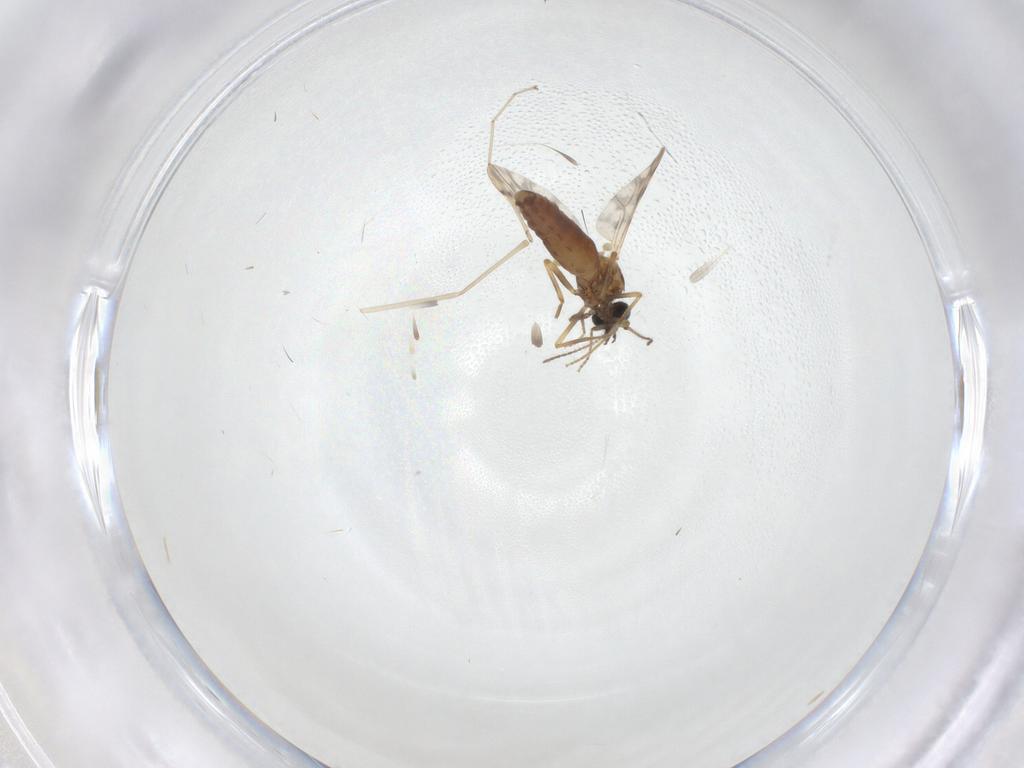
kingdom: Animalia
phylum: Arthropoda
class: Insecta
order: Diptera
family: Ceratopogonidae
